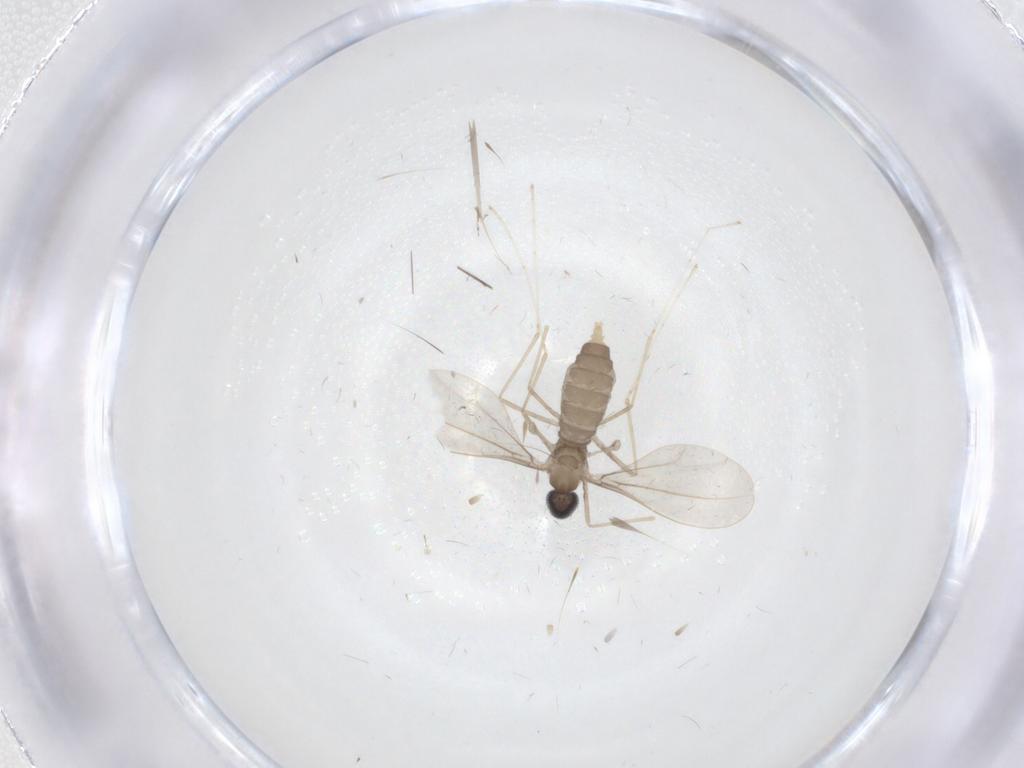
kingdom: Animalia
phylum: Arthropoda
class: Insecta
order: Diptera
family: Cecidomyiidae
